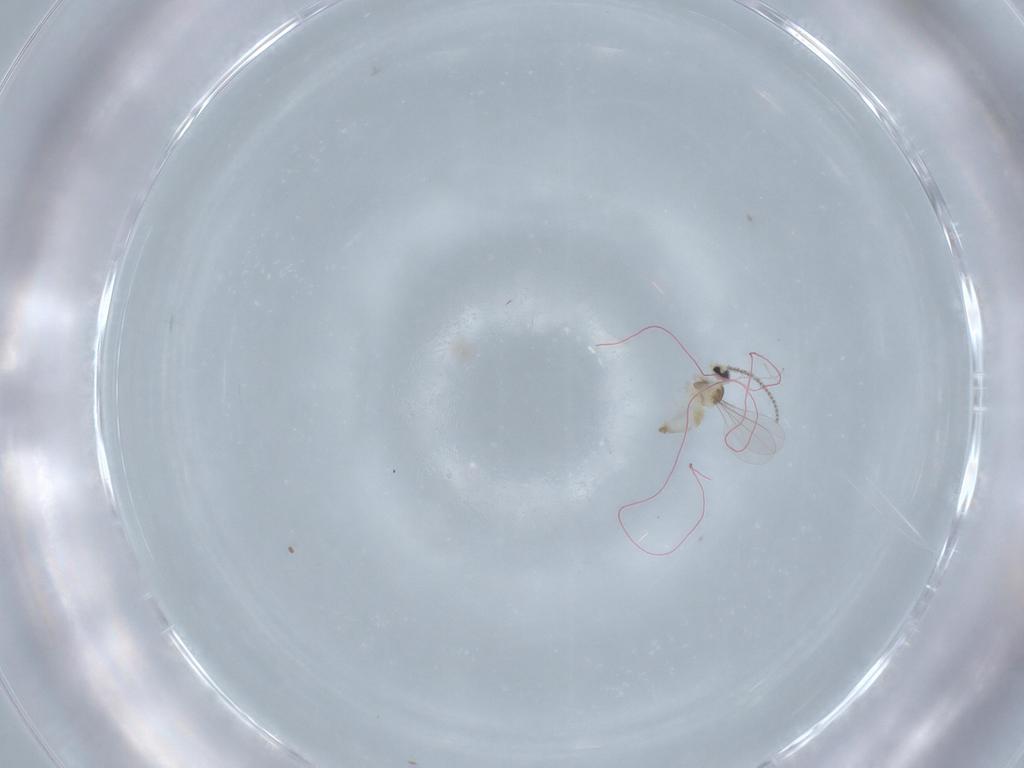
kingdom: Animalia
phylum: Arthropoda
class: Insecta
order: Diptera
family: Cecidomyiidae
